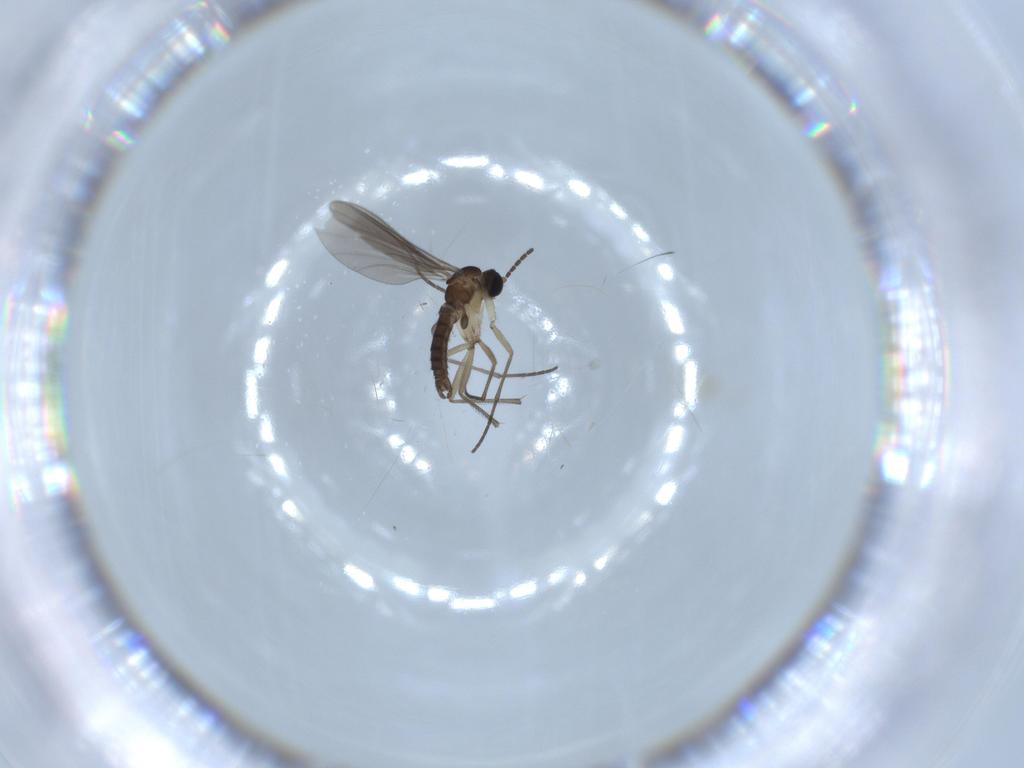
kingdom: Animalia
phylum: Arthropoda
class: Insecta
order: Diptera
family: Sciaridae
